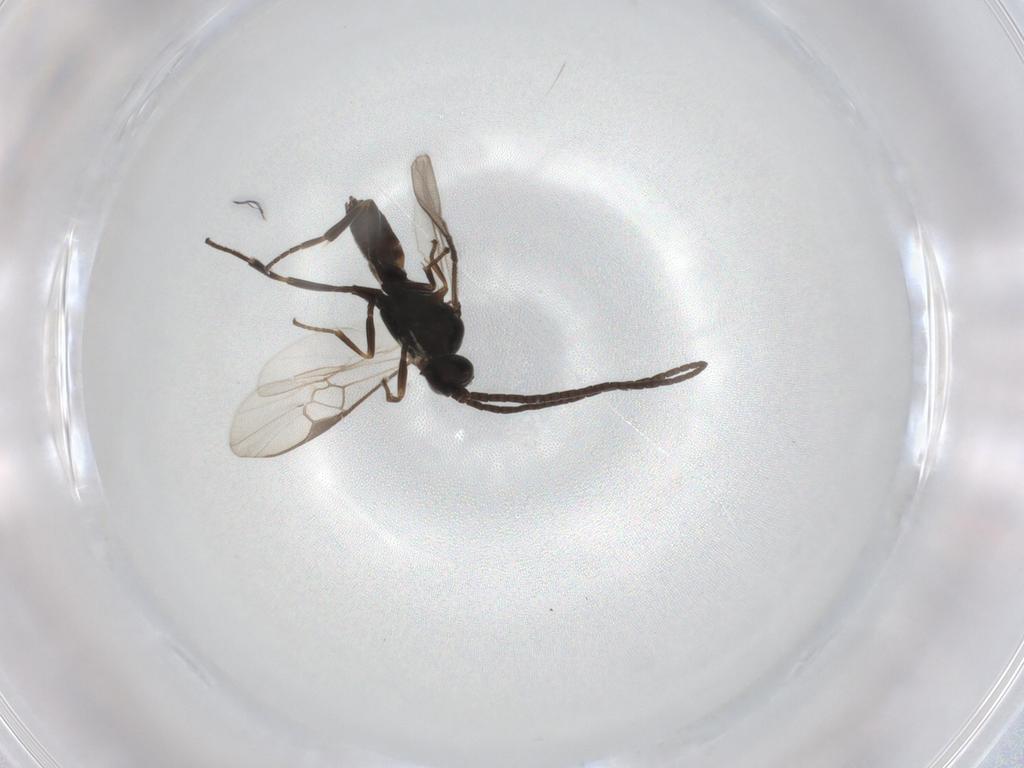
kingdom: Animalia
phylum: Arthropoda
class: Insecta
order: Hymenoptera
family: Braconidae
